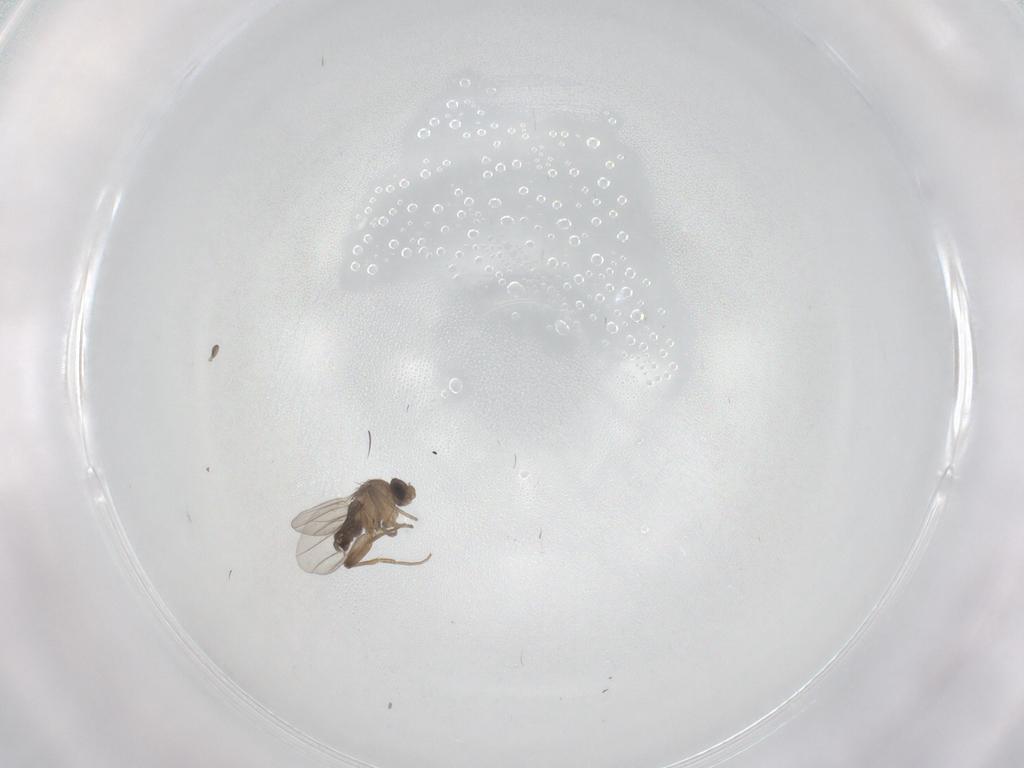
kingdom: Animalia
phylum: Arthropoda
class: Insecta
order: Diptera
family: Phoridae
